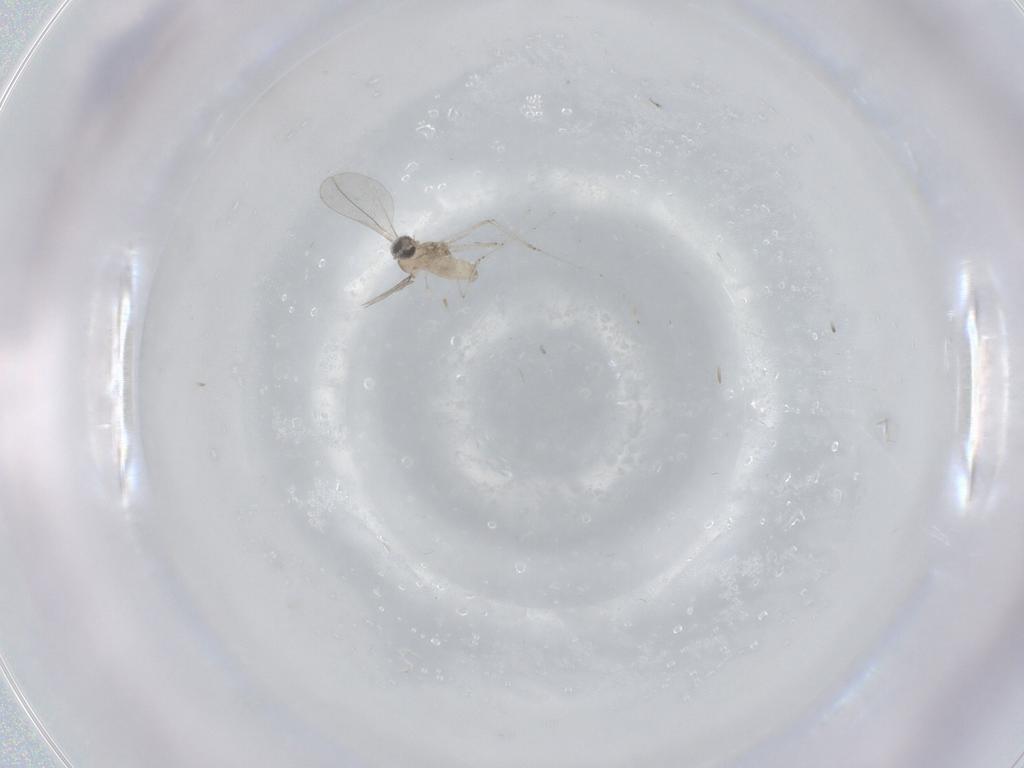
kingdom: Animalia
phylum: Arthropoda
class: Insecta
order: Diptera
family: Cecidomyiidae
